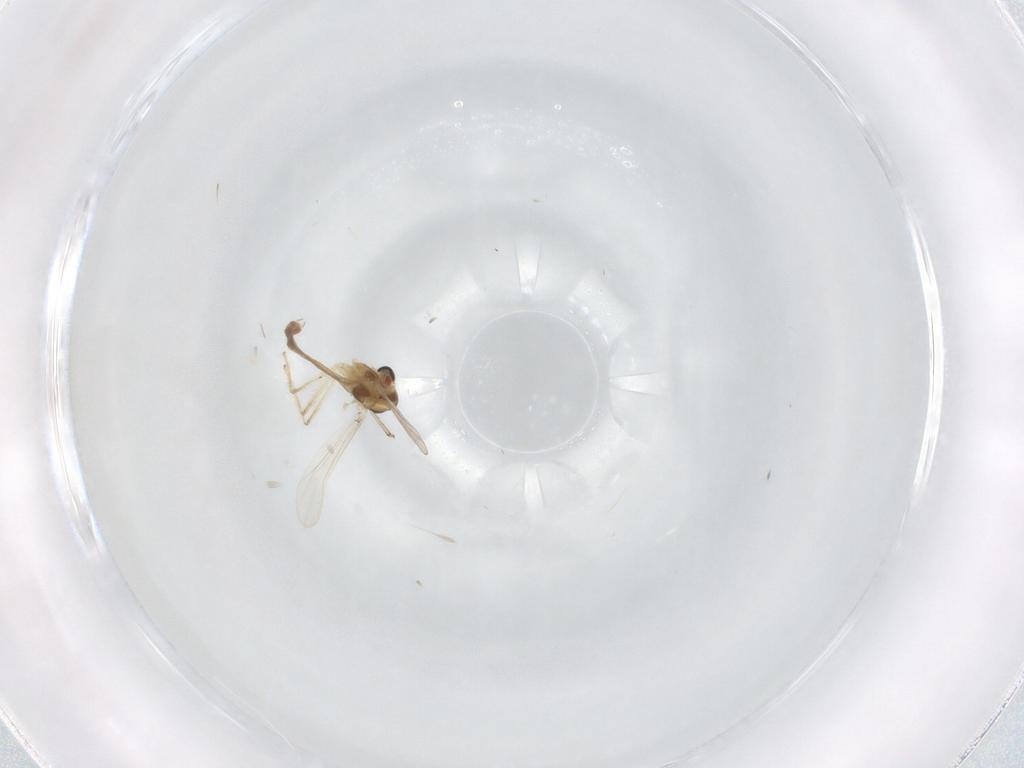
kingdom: Animalia
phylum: Arthropoda
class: Insecta
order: Diptera
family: Chironomidae
